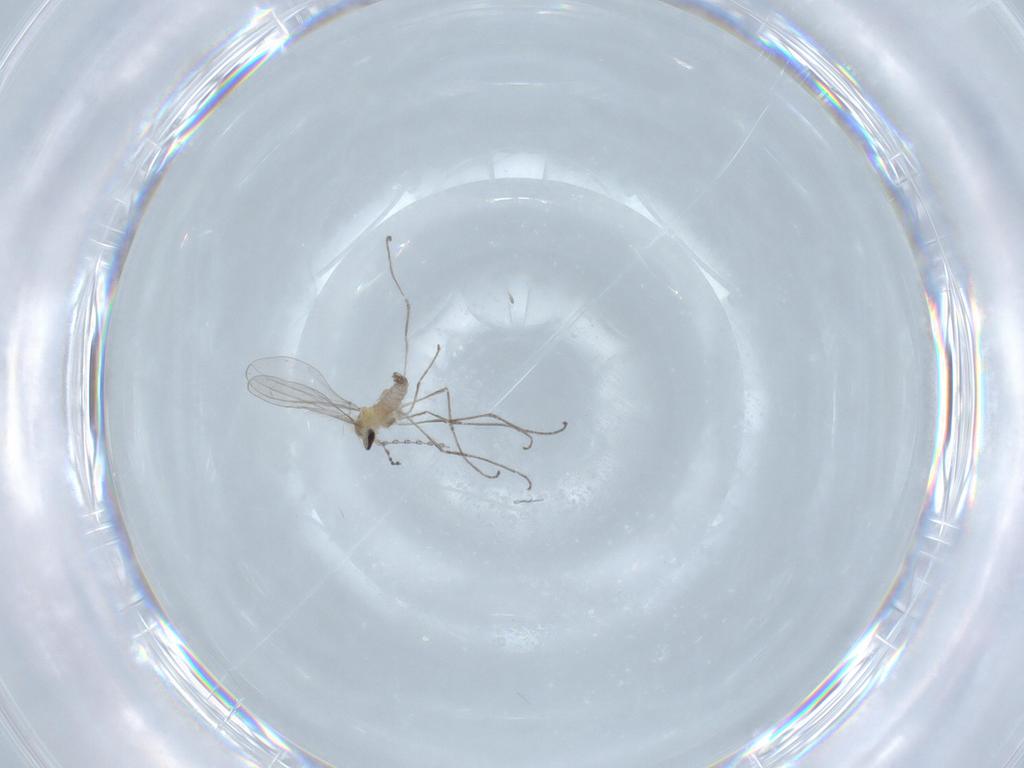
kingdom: Animalia
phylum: Arthropoda
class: Insecta
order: Diptera
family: Cecidomyiidae
